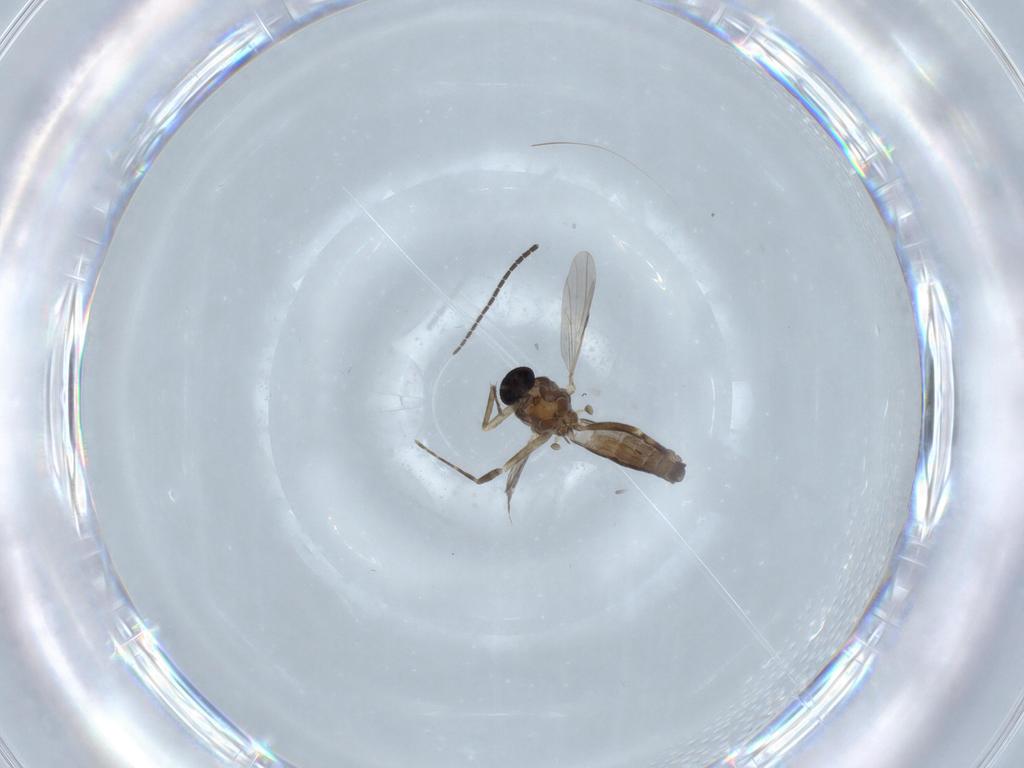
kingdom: Animalia
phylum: Arthropoda
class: Insecta
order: Diptera
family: Ceratopogonidae
